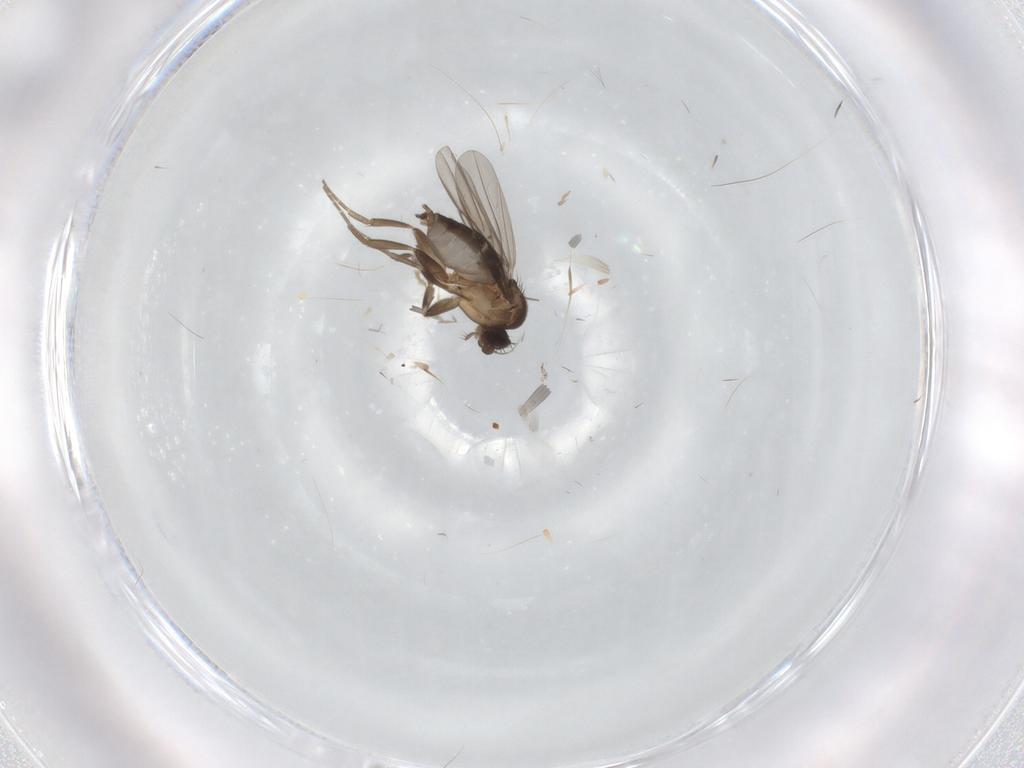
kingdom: Animalia
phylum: Arthropoda
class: Insecta
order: Diptera
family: Phoridae
